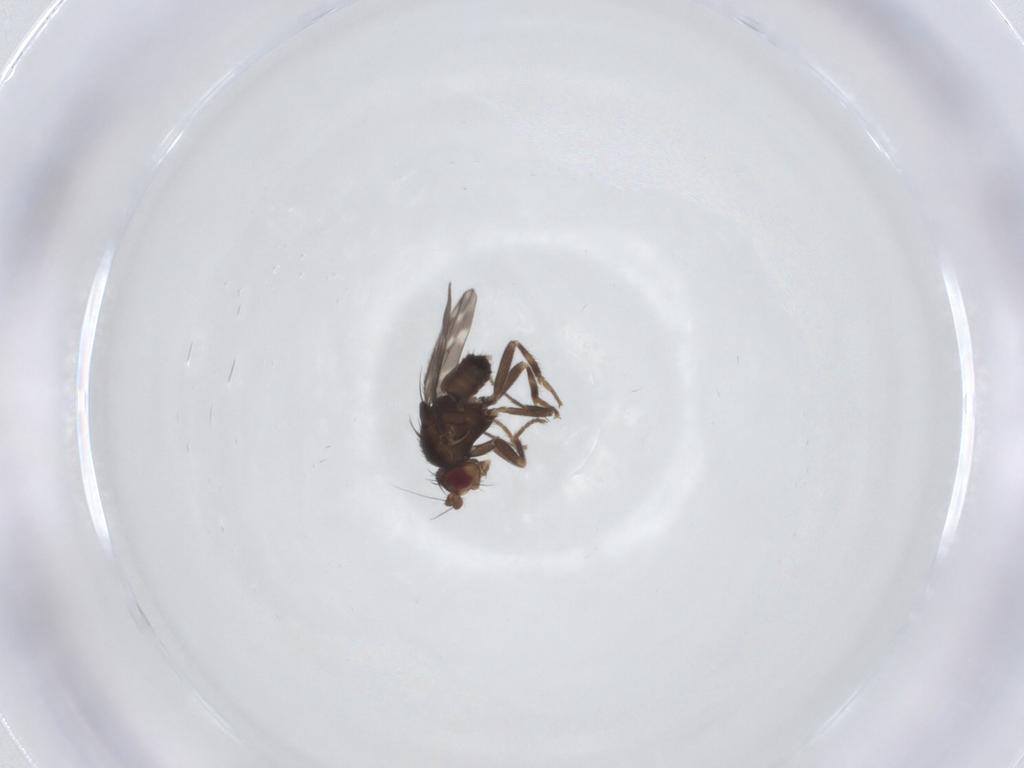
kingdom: Animalia
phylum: Arthropoda
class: Insecta
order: Diptera
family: Sphaeroceridae
